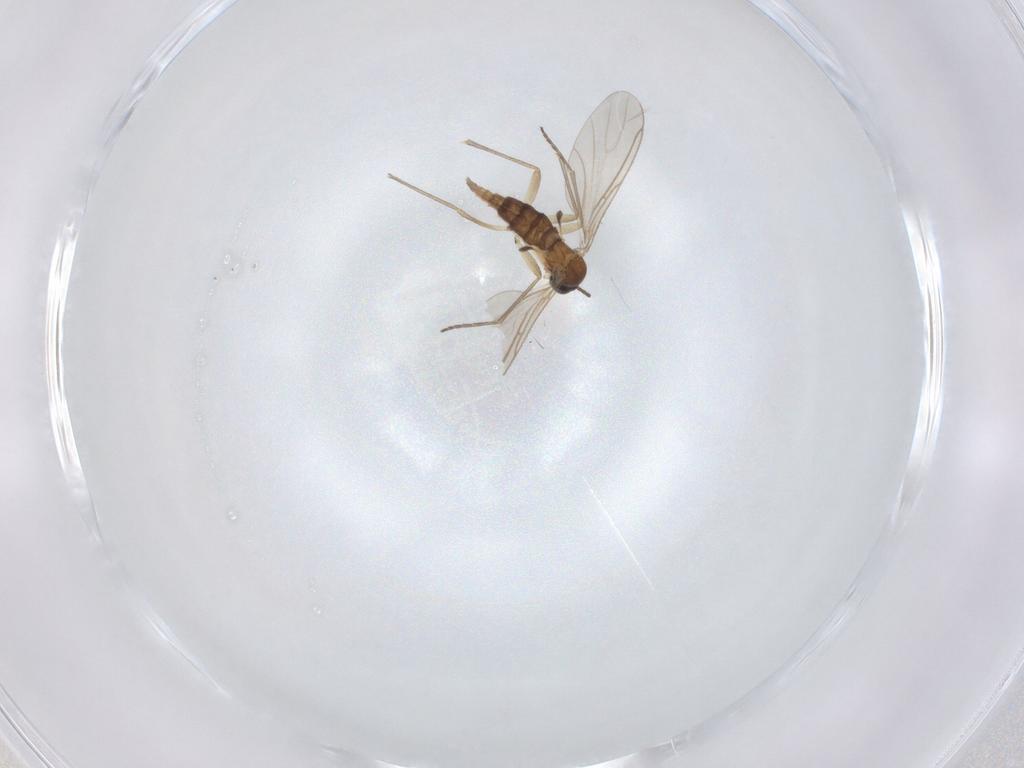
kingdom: Animalia
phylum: Arthropoda
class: Insecta
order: Diptera
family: Sciaridae
